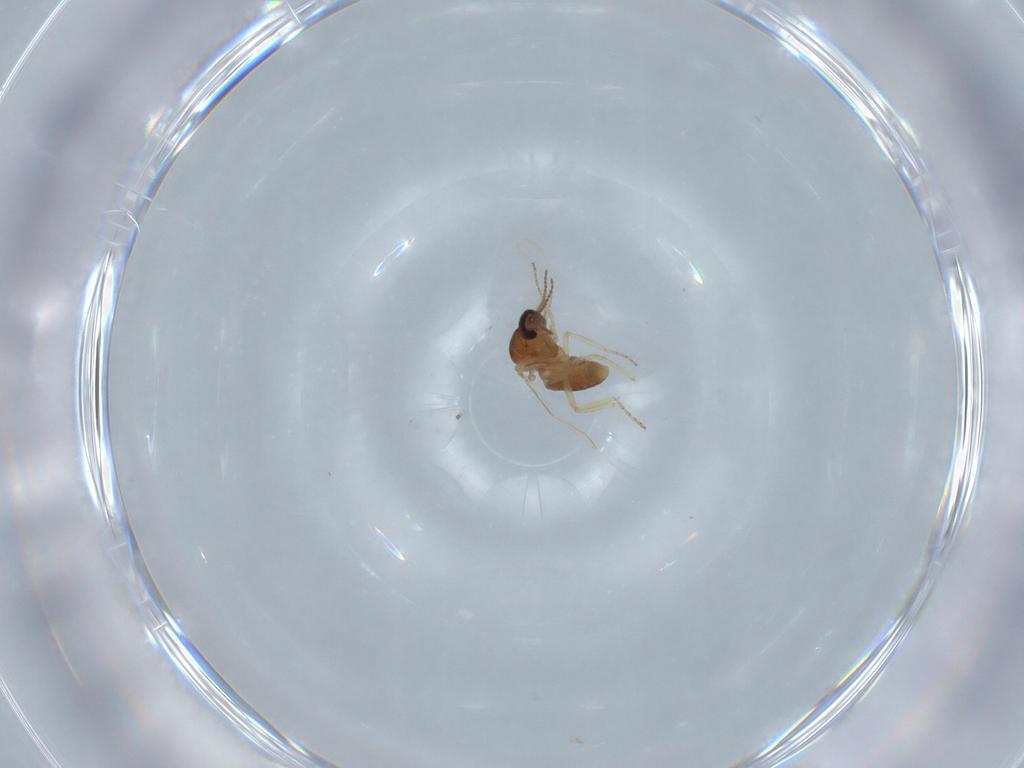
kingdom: Animalia
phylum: Arthropoda
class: Insecta
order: Diptera
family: Ceratopogonidae
